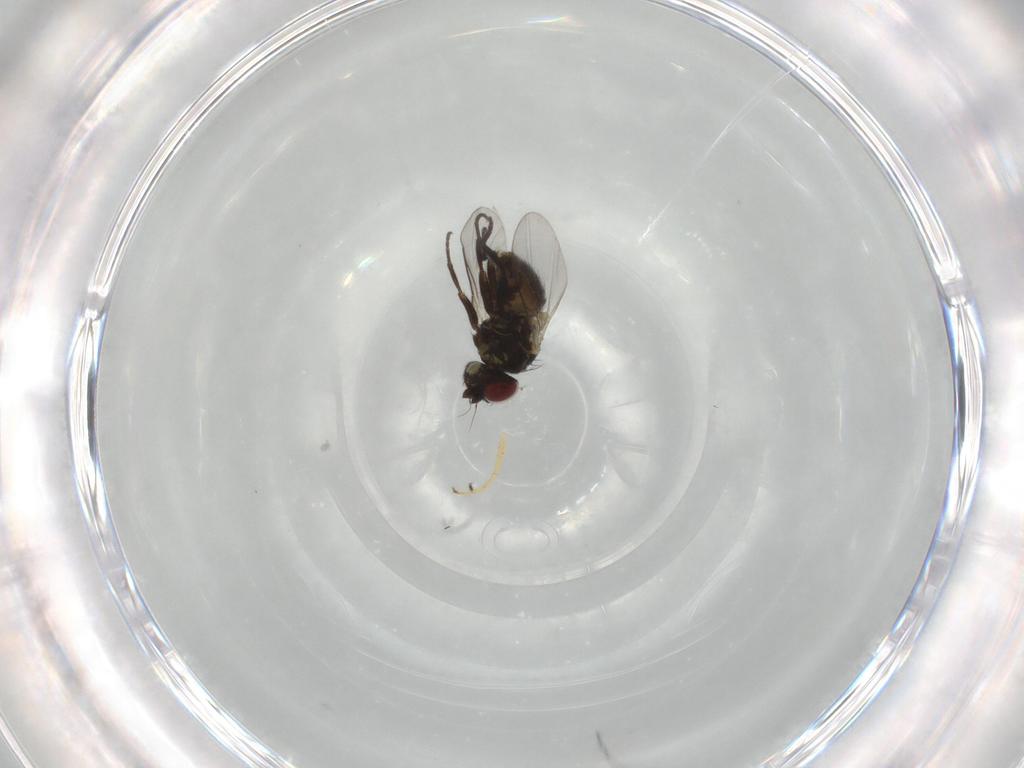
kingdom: Animalia
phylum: Arthropoda
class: Insecta
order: Diptera
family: Hybotidae
